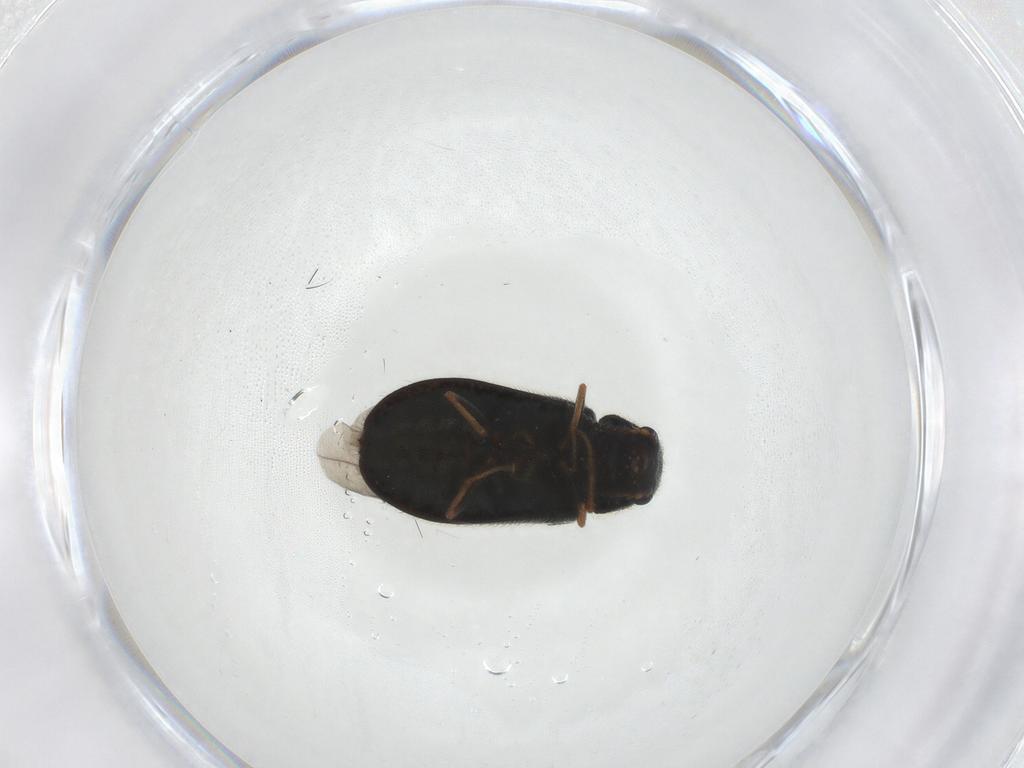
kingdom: Animalia
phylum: Arthropoda
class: Insecta
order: Coleoptera
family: Melyridae
